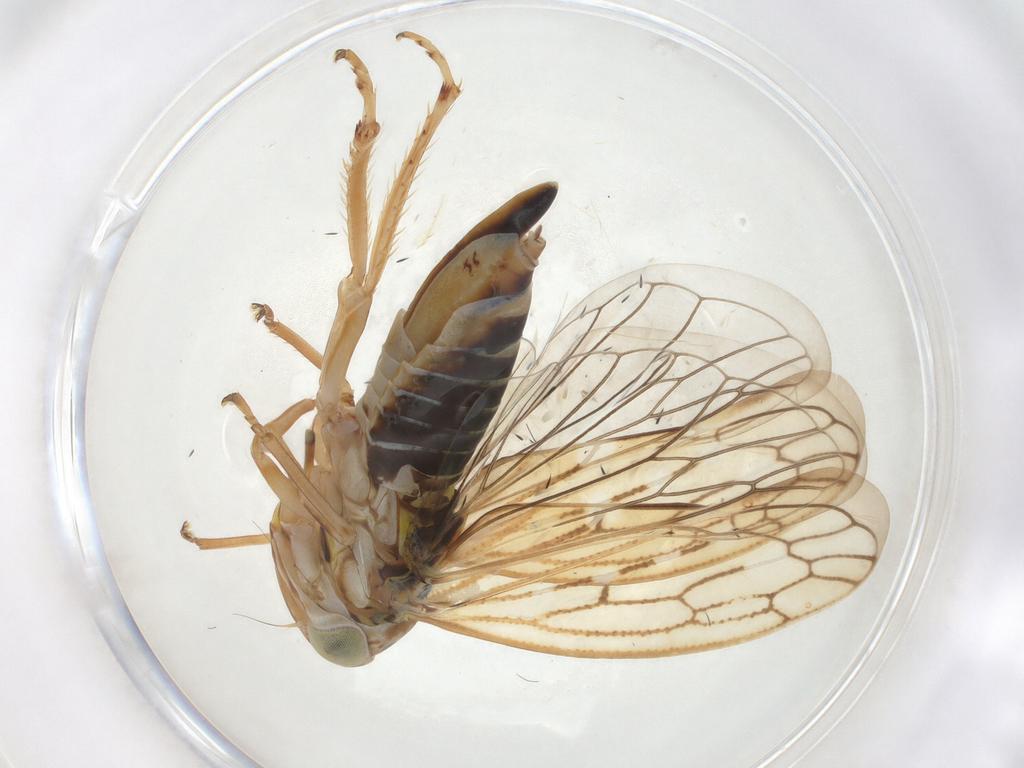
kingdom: Animalia
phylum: Arthropoda
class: Insecta
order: Hemiptera
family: Cicadellidae
